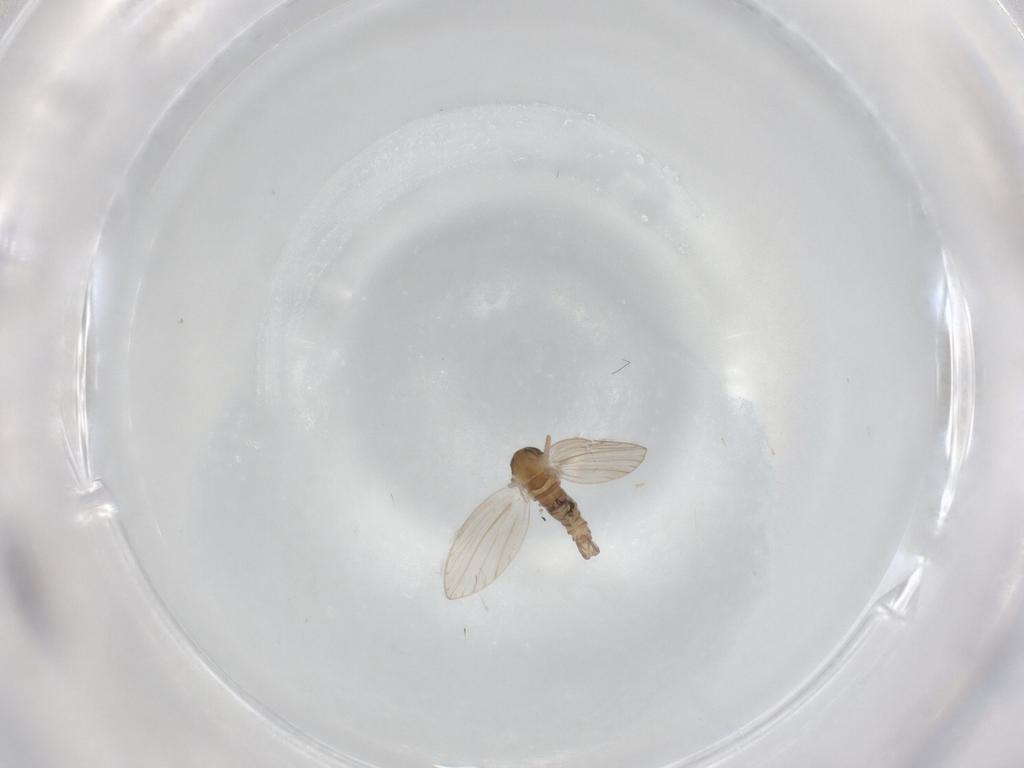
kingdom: Animalia
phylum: Arthropoda
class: Insecta
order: Diptera
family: Psychodidae
